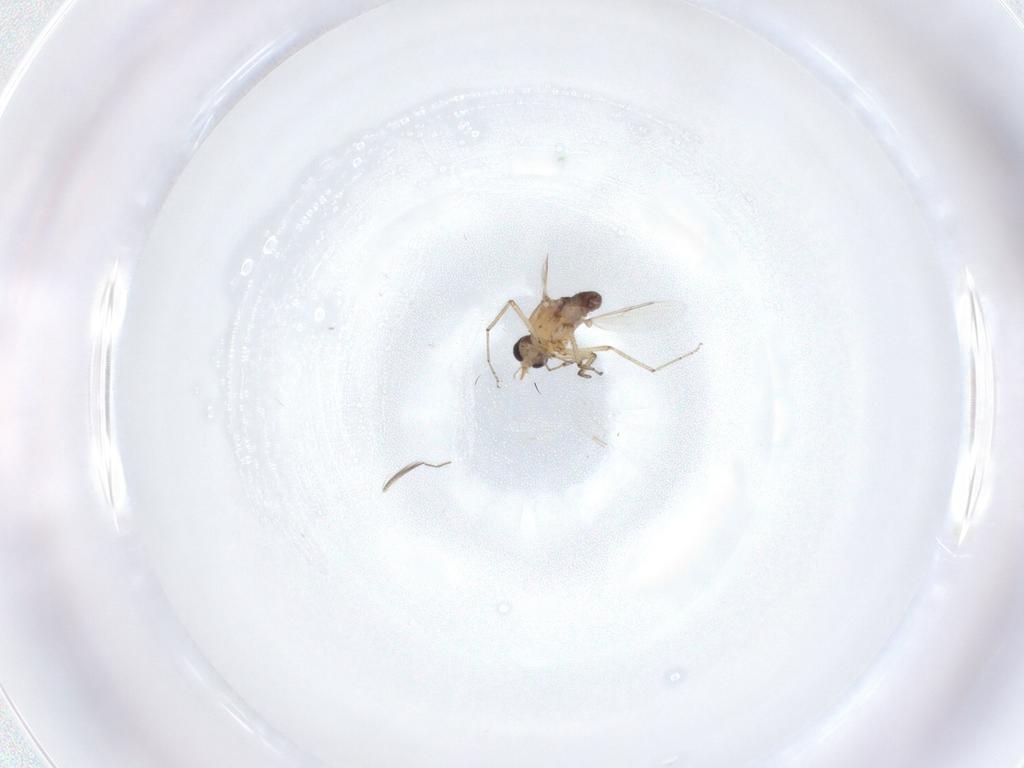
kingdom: Animalia
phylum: Arthropoda
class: Insecta
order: Diptera
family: Ceratopogonidae
